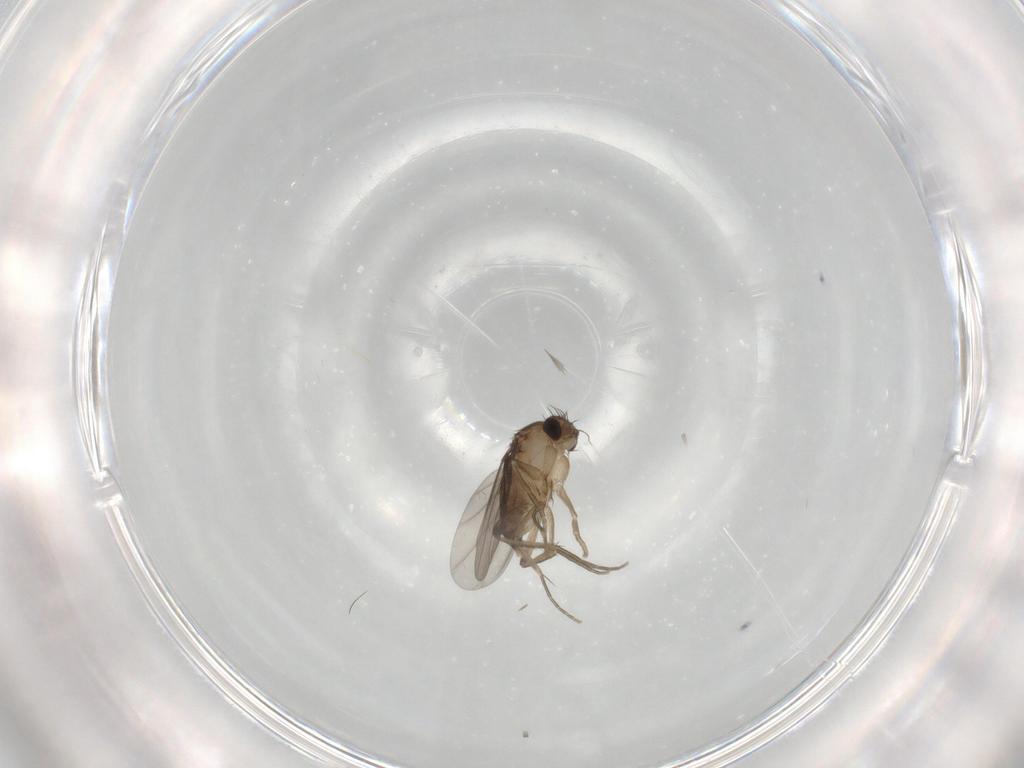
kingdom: Animalia
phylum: Arthropoda
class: Insecta
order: Diptera
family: Phoridae
